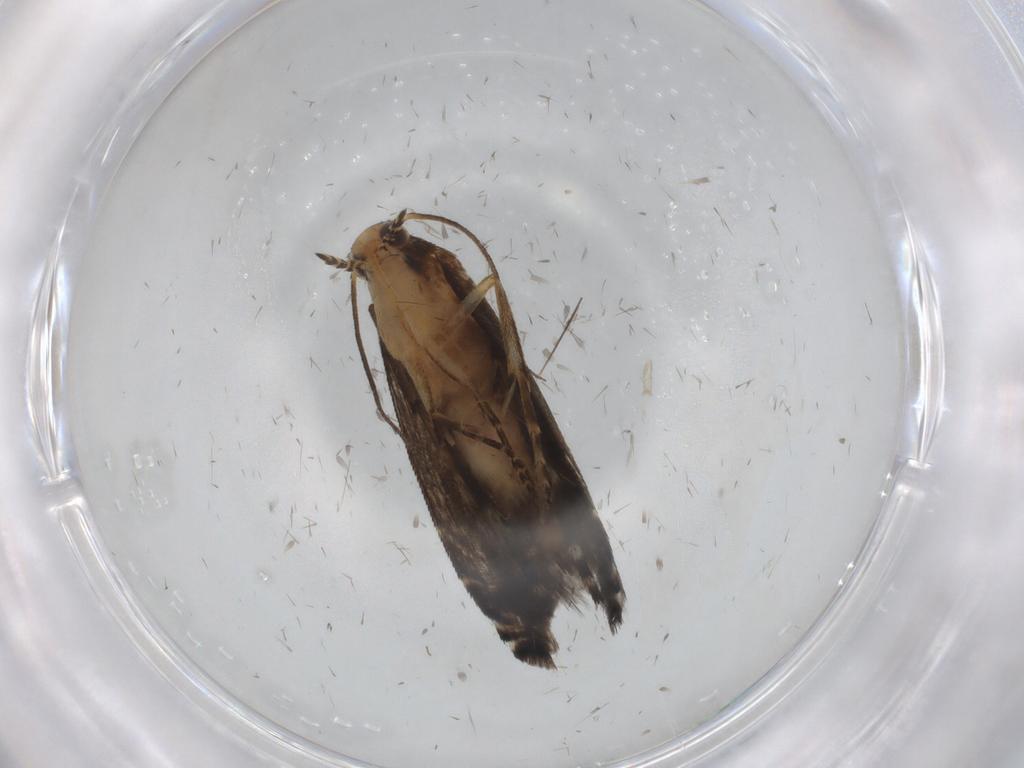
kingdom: Animalia
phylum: Arthropoda
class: Insecta
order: Lepidoptera
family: Glyphipterigidae
